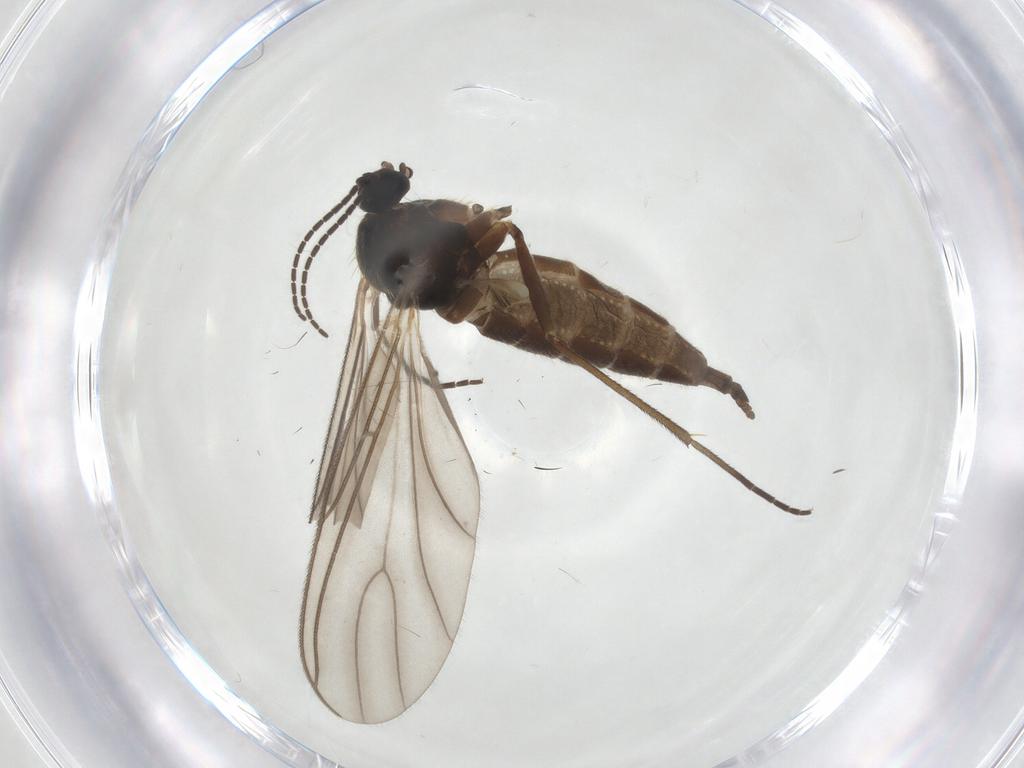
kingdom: Animalia
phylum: Arthropoda
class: Insecta
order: Diptera
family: Sciaridae
